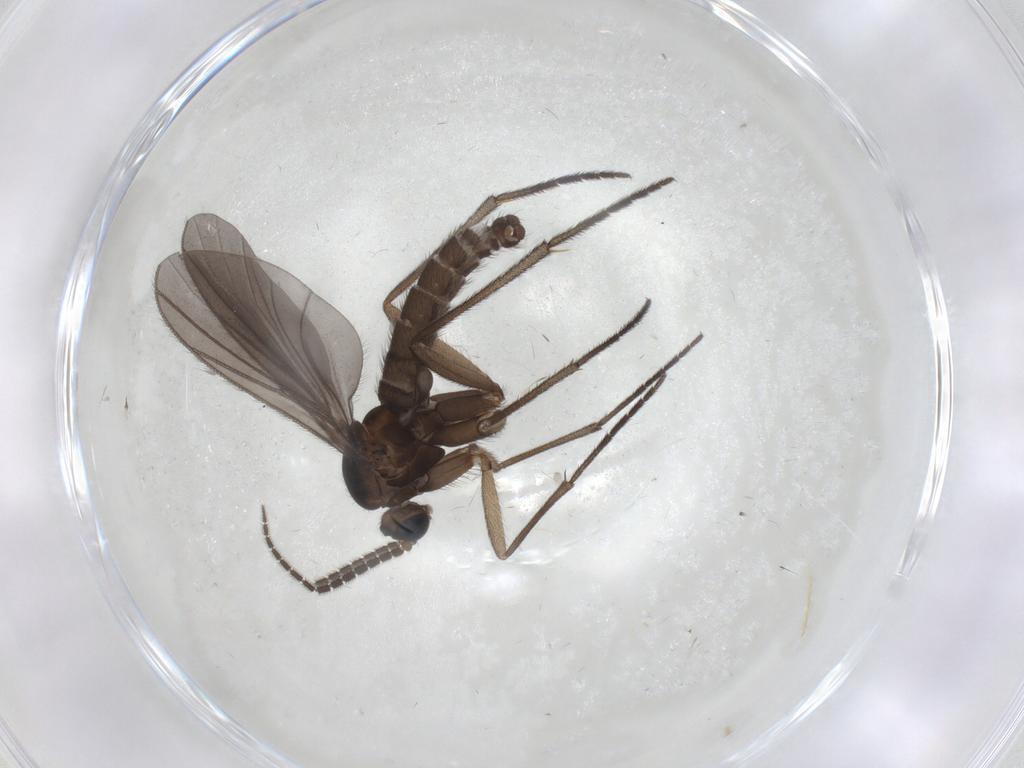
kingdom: Animalia
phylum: Arthropoda
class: Insecta
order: Diptera
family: Sciaridae
